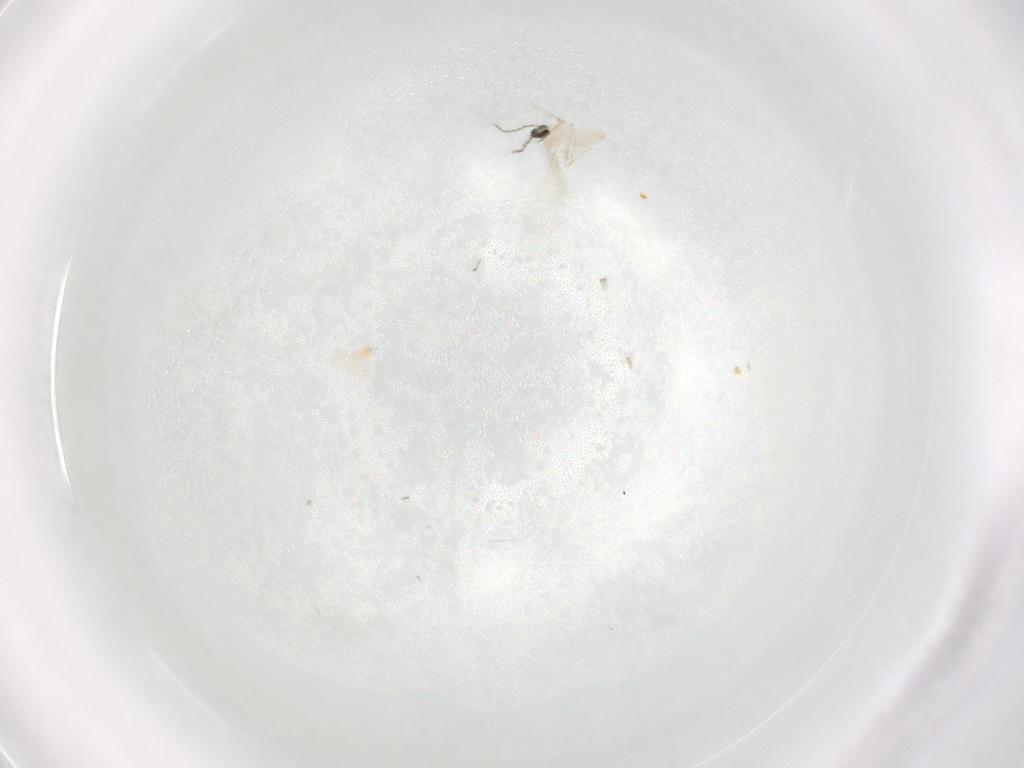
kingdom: Animalia
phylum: Arthropoda
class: Insecta
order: Diptera
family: Cecidomyiidae
